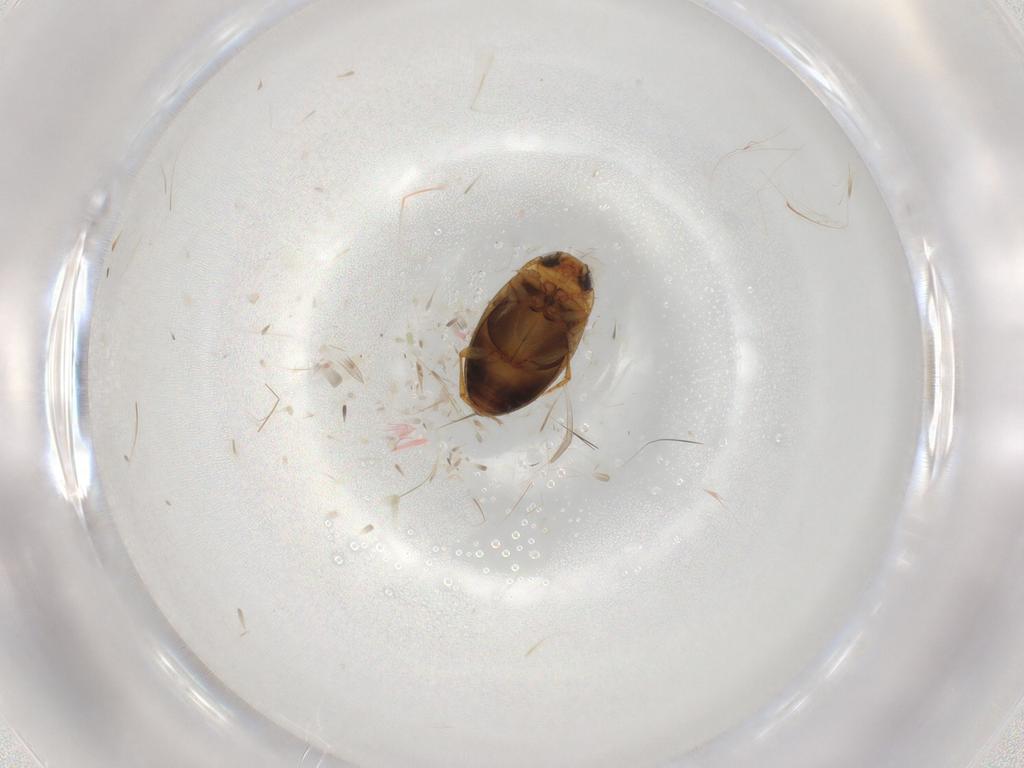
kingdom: Animalia
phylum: Arthropoda
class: Insecta
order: Coleoptera
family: Dytiscidae
